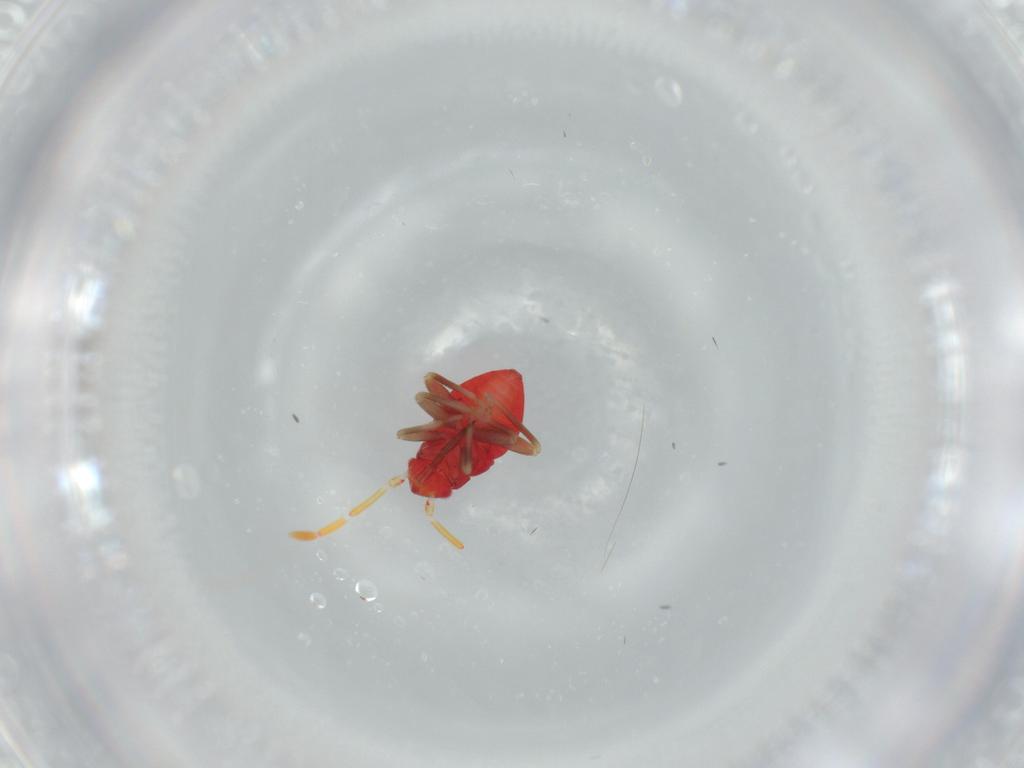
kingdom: Animalia
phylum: Arthropoda
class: Insecta
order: Hemiptera
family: Miridae
